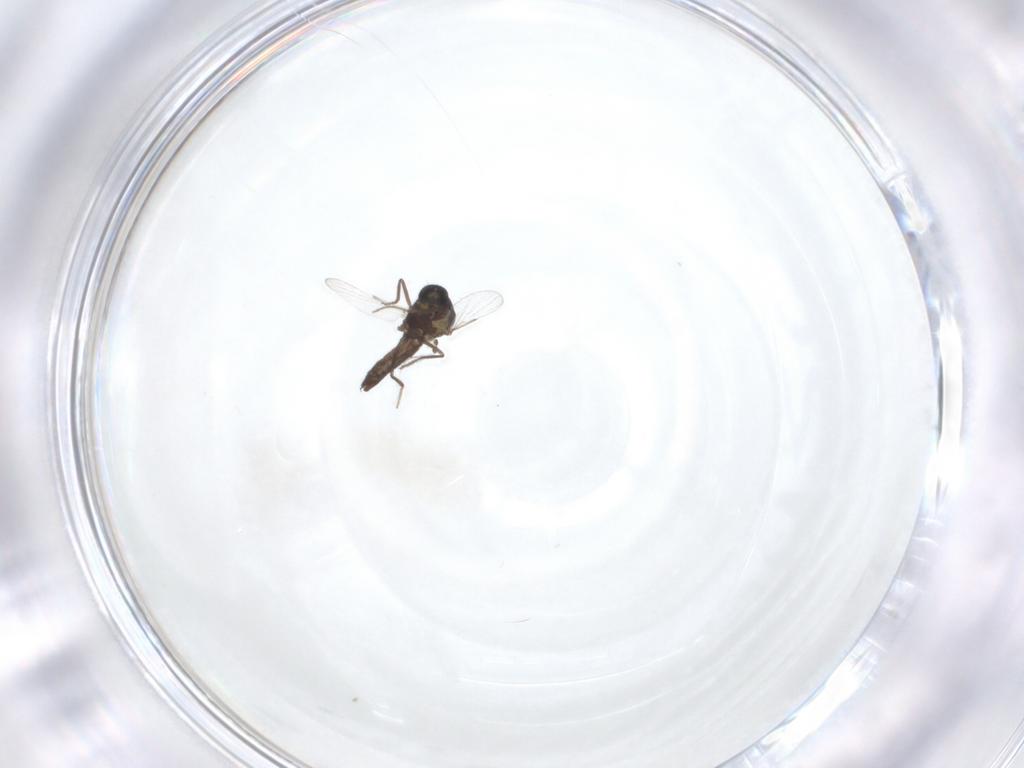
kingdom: Animalia
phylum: Arthropoda
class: Insecta
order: Diptera
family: Ceratopogonidae
